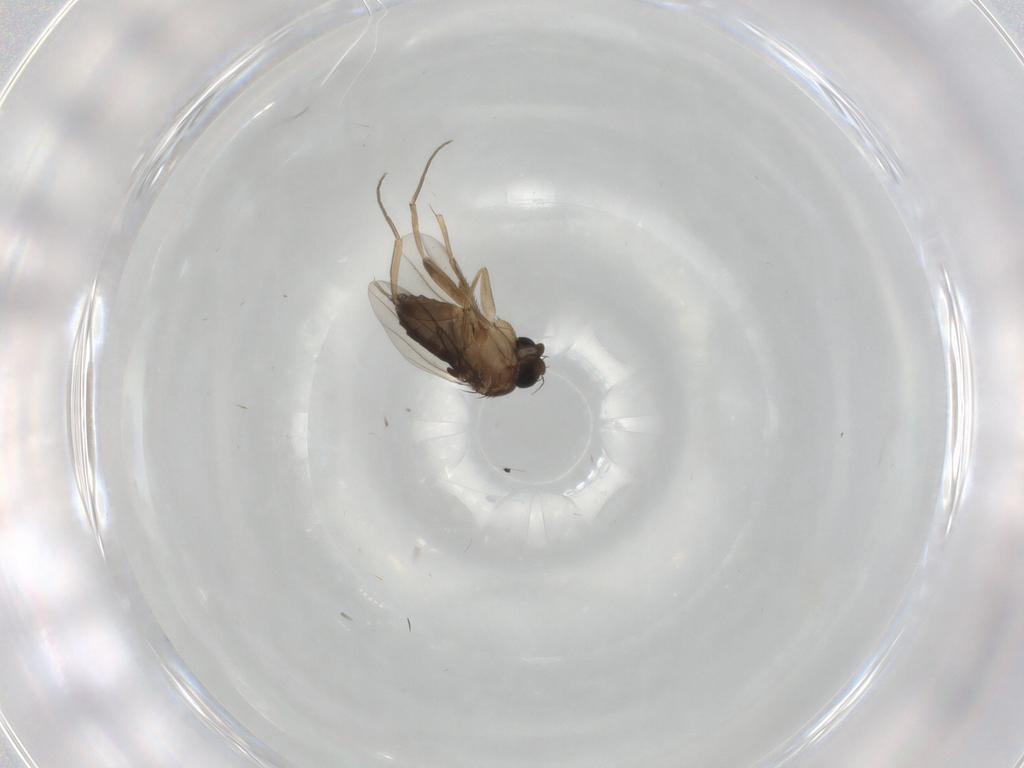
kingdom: Animalia
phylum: Arthropoda
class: Insecta
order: Diptera
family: Phoridae
